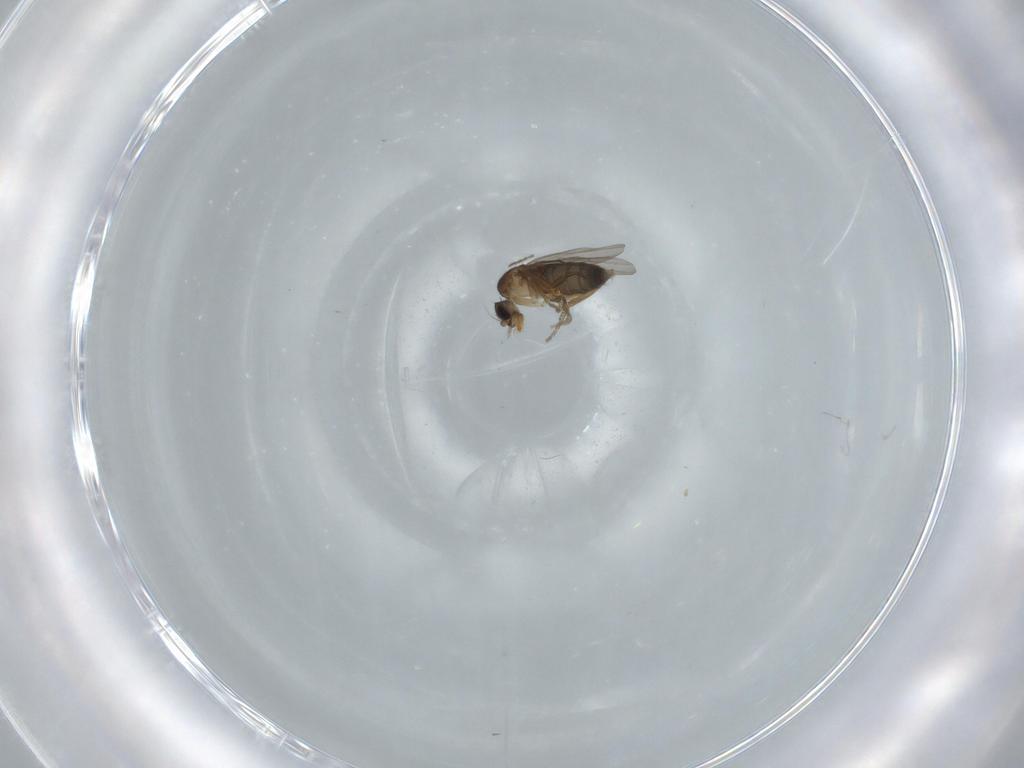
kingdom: Animalia
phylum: Arthropoda
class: Insecta
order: Diptera
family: Phoridae
